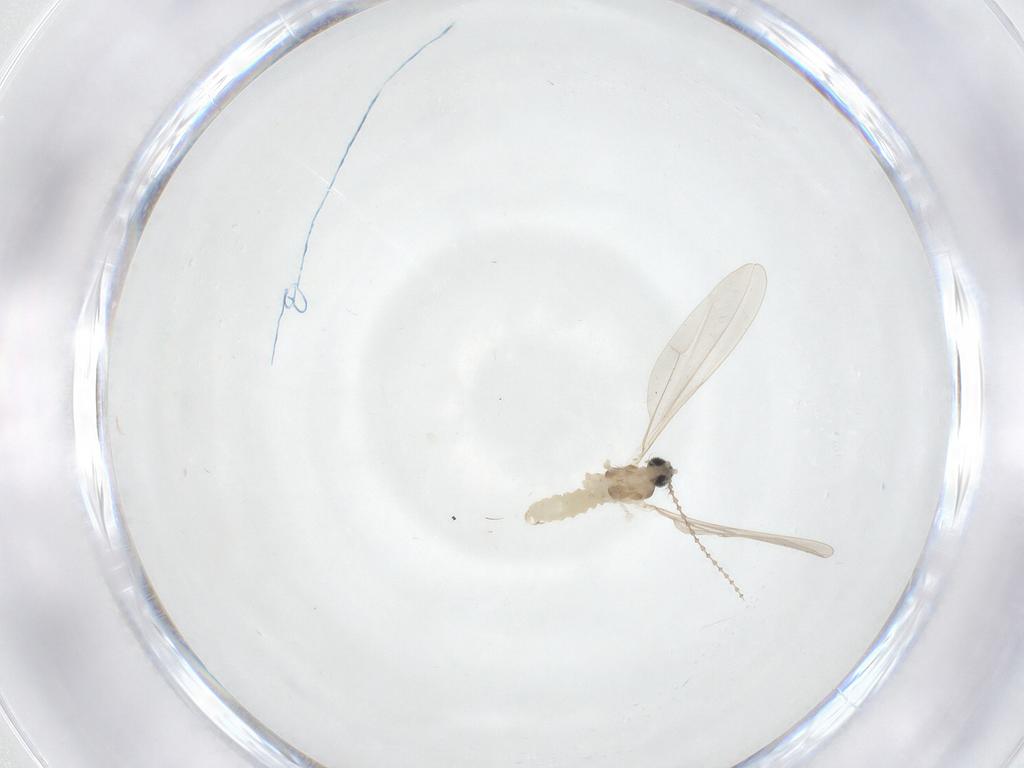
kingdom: Animalia
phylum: Arthropoda
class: Insecta
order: Diptera
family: Cecidomyiidae
